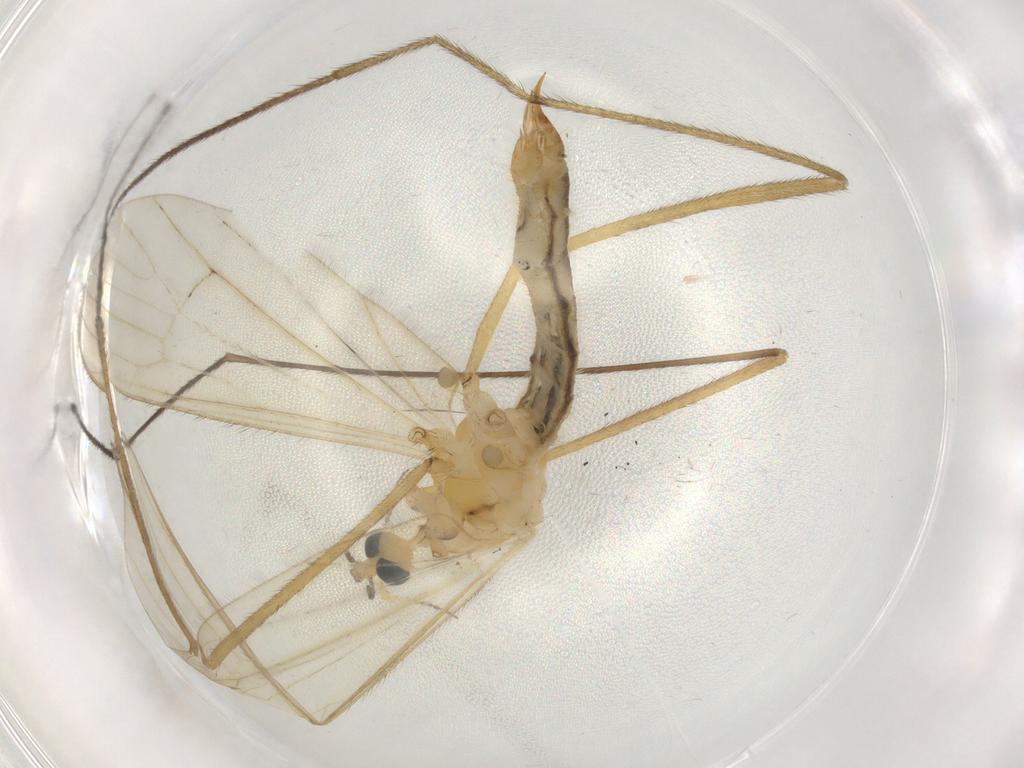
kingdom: Animalia
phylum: Arthropoda
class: Insecta
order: Diptera
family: Limoniidae
